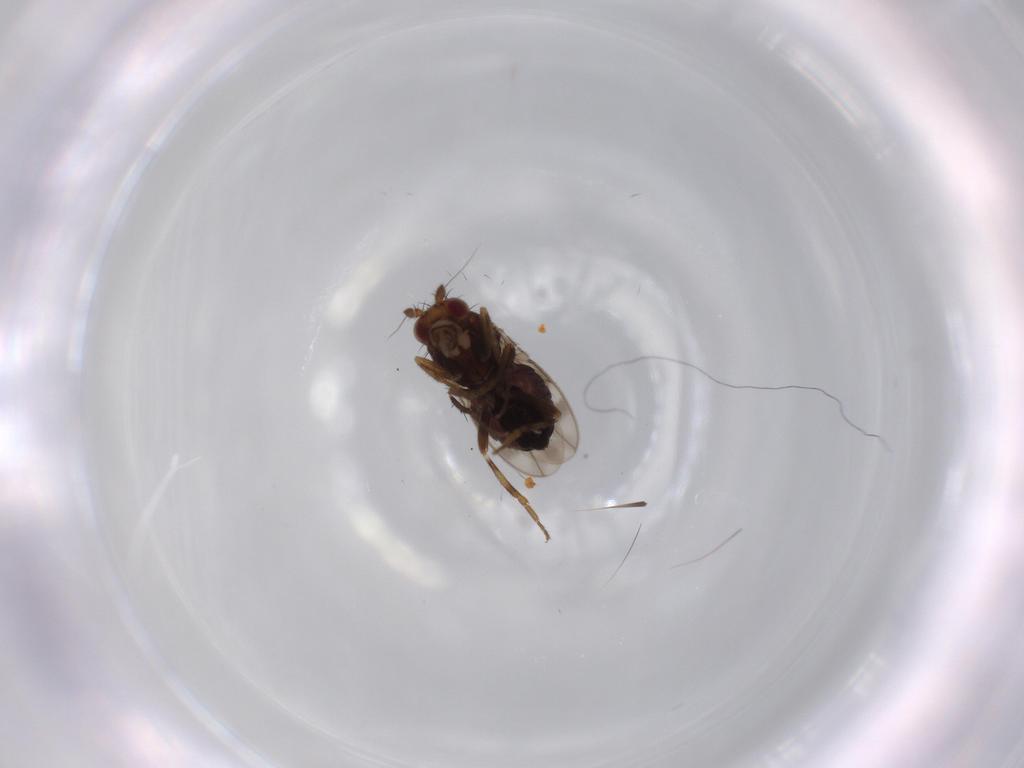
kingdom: Animalia
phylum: Arthropoda
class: Insecta
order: Diptera
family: Sphaeroceridae
